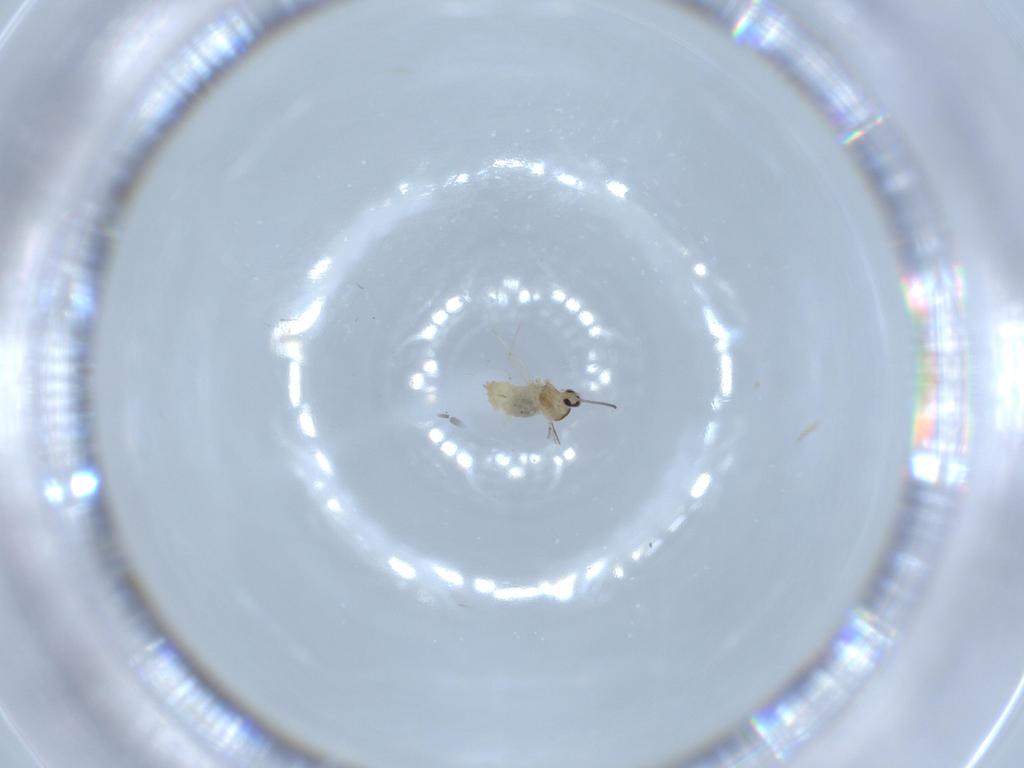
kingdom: Animalia
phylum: Arthropoda
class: Insecta
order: Diptera
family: Cecidomyiidae
